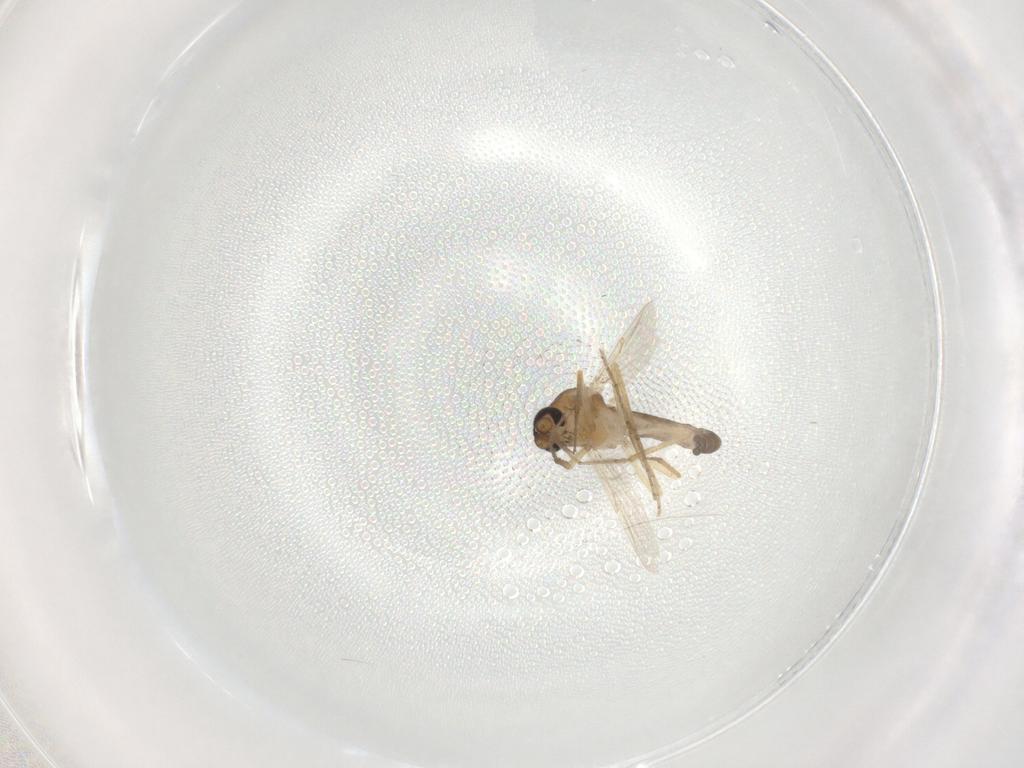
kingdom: Animalia
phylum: Arthropoda
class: Insecta
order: Diptera
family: Ceratopogonidae
